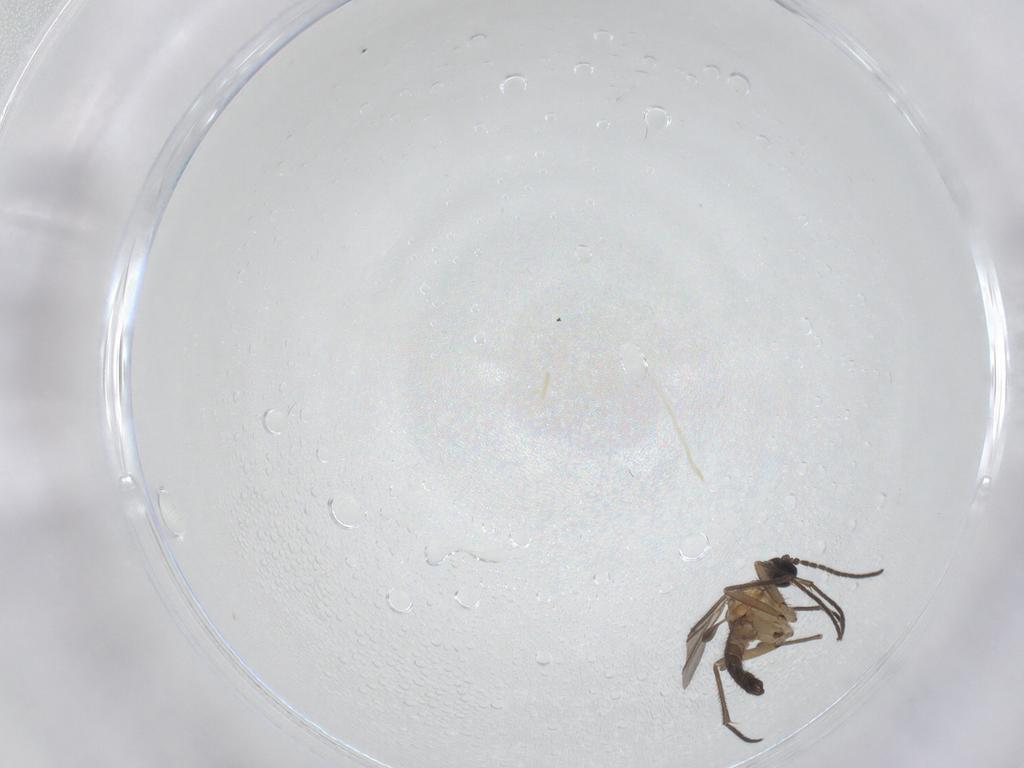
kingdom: Animalia
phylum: Arthropoda
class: Insecta
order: Diptera
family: Sciaridae
